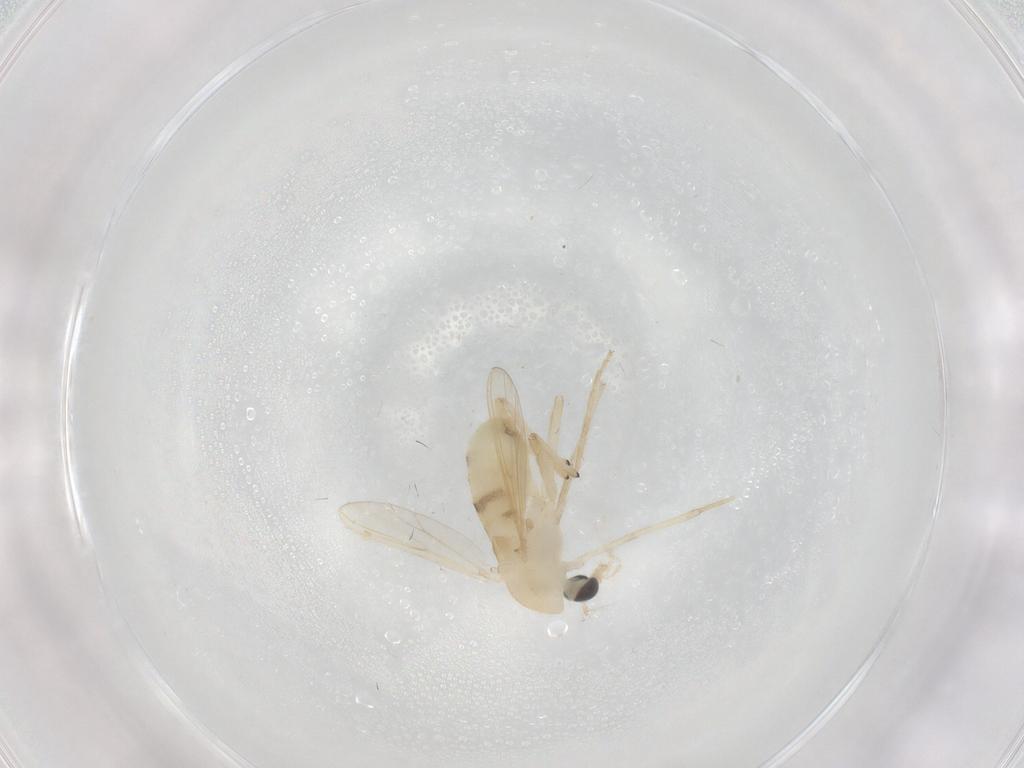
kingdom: Animalia
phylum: Arthropoda
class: Insecta
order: Diptera
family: Chironomidae
